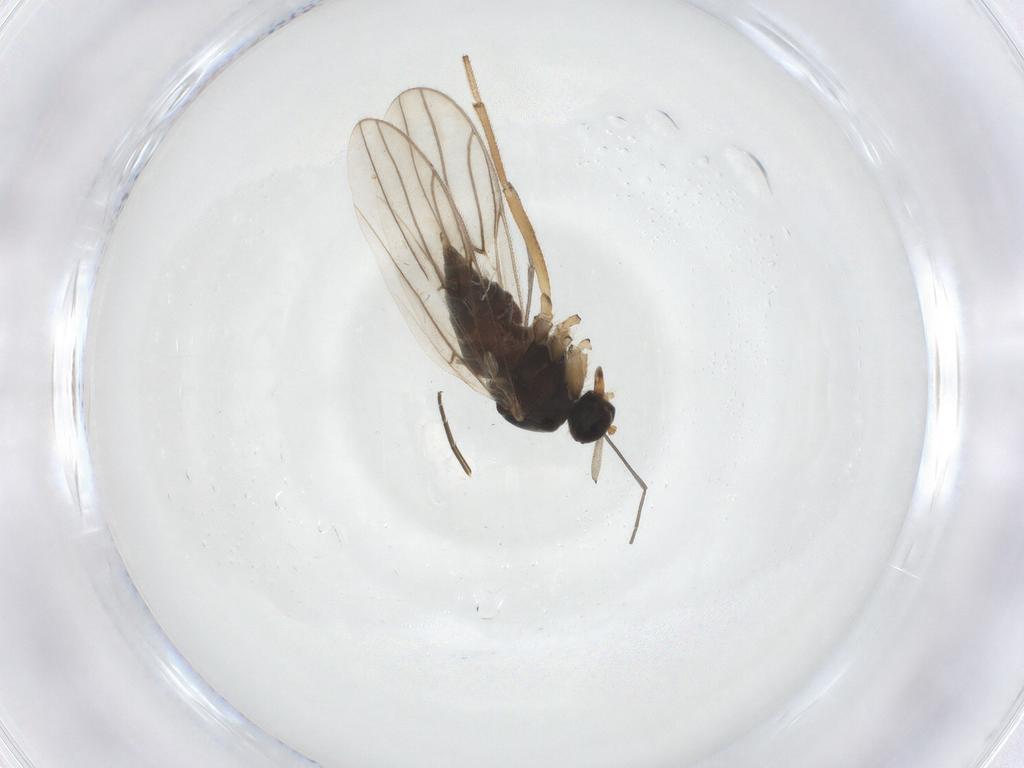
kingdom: Animalia
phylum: Arthropoda
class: Insecta
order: Diptera
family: Hybotidae
